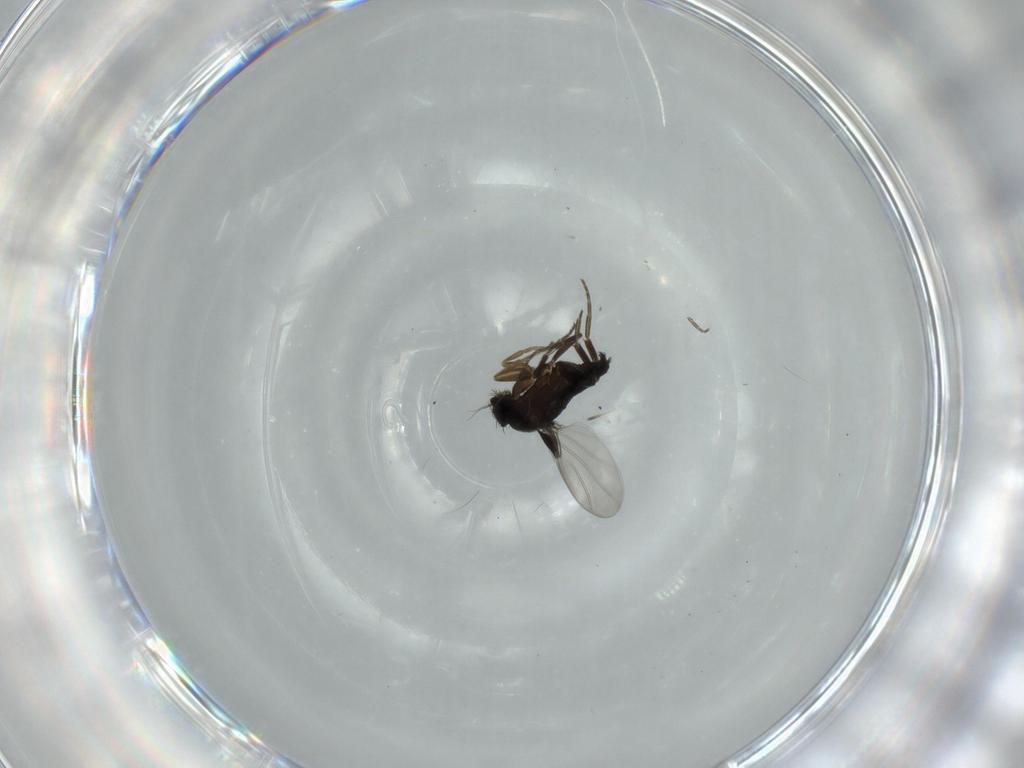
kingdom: Animalia
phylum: Arthropoda
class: Insecta
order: Diptera
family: Phoridae
